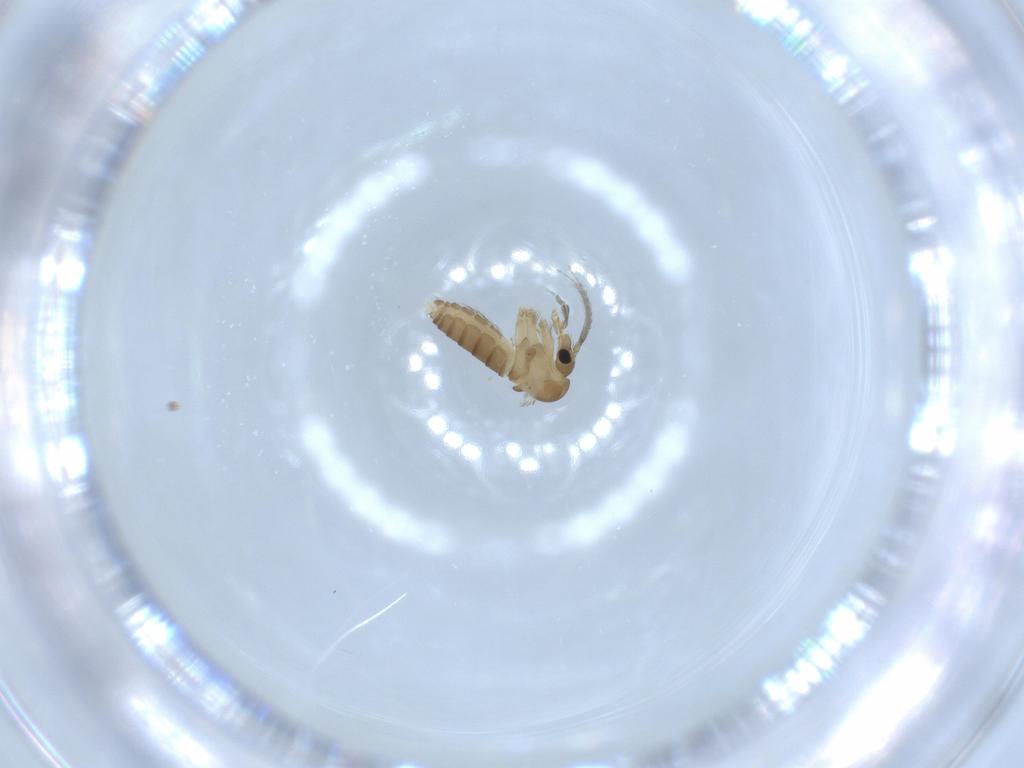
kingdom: Animalia
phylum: Arthropoda
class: Insecta
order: Diptera
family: Psychodidae
